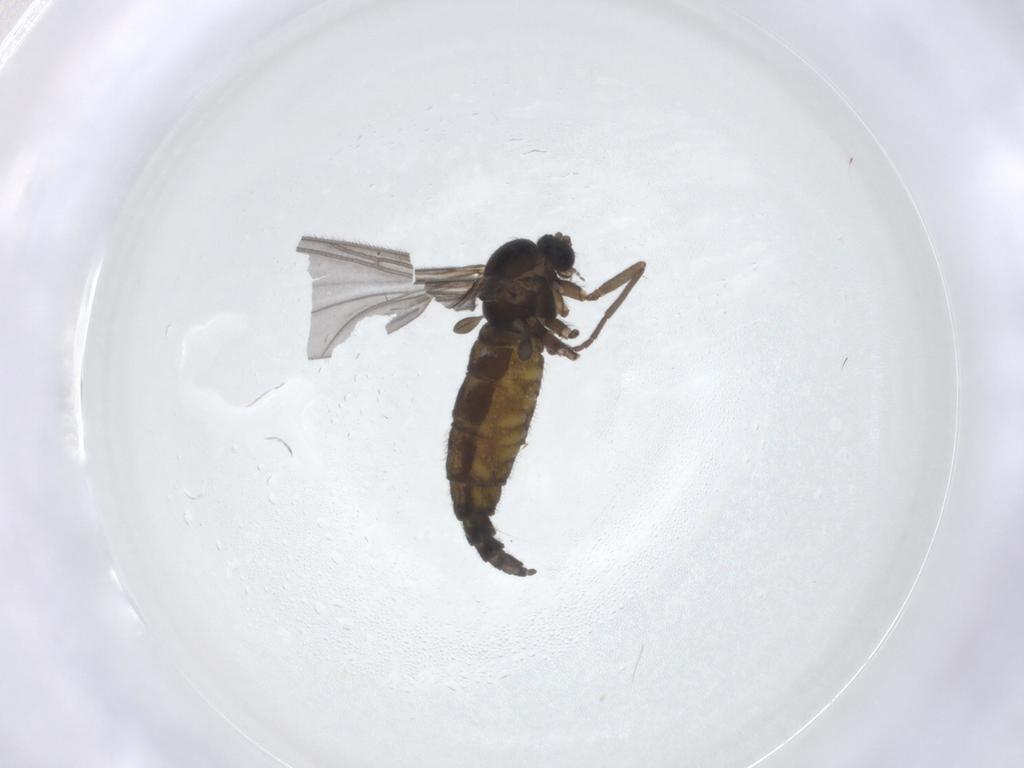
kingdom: Animalia
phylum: Arthropoda
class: Insecta
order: Diptera
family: Sciaridae
